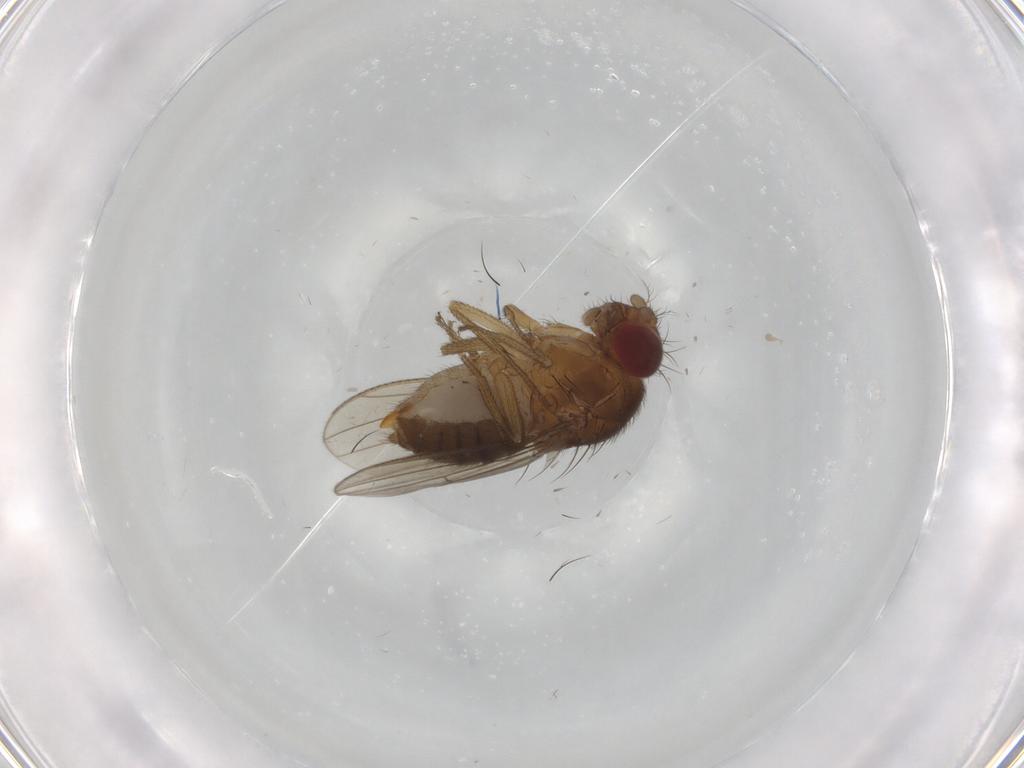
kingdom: Animalia
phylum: Arthropoda
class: Insecta
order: Diptera
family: Drosophilidae
